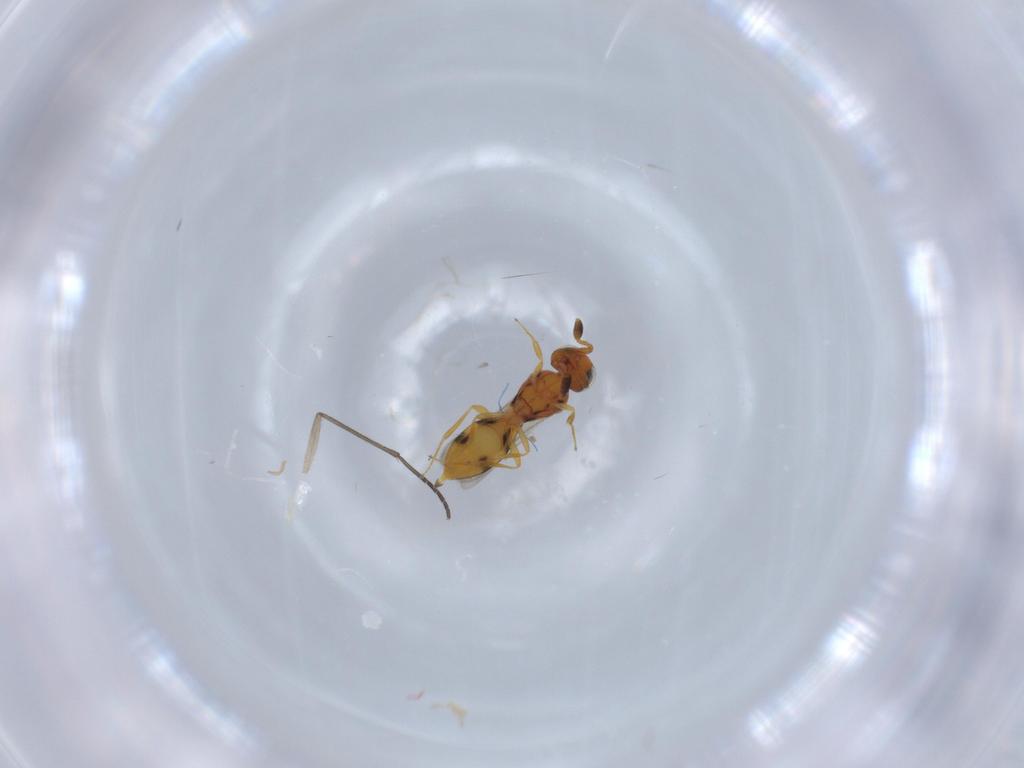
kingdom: Animalia
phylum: Arthropoda
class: Insecta
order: Hymenoptera
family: Scelionidae
